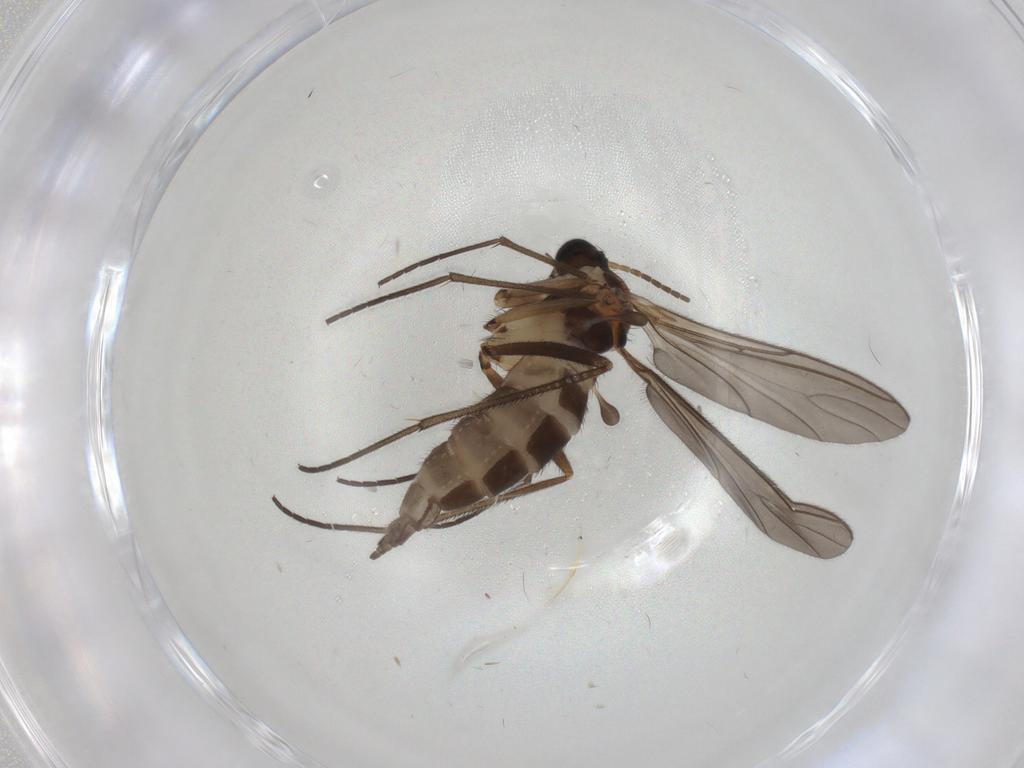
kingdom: Animalia
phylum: Arthropoda
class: Insecta
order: Diptera
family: Sciaridae
